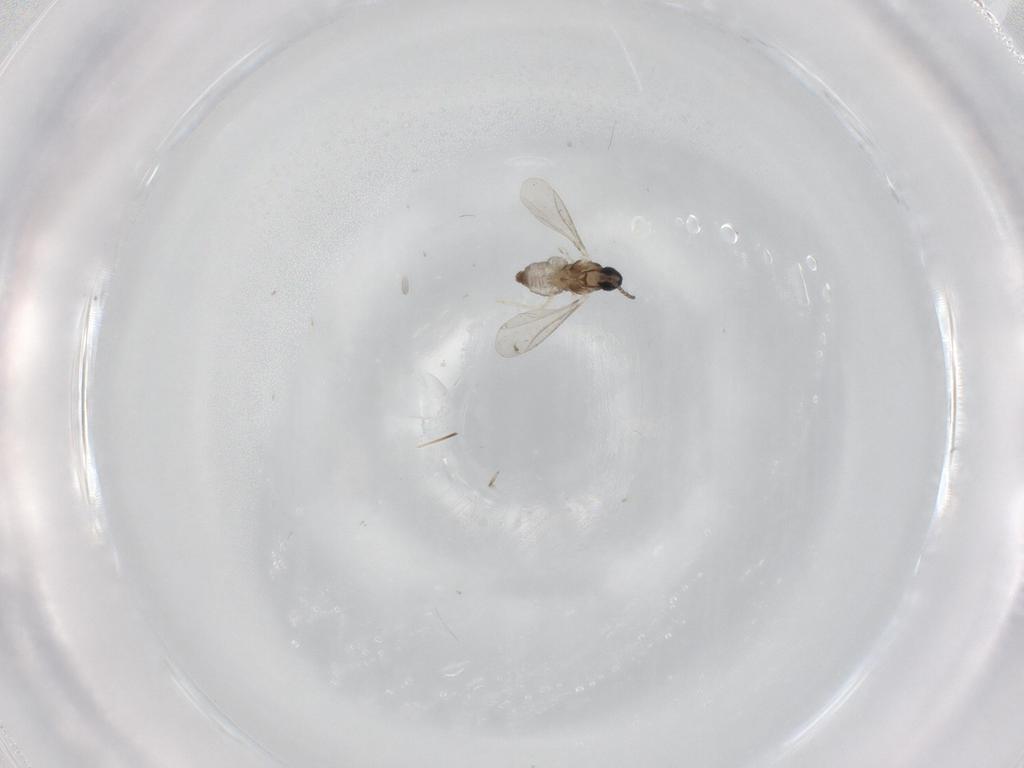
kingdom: Animalia
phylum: Arthropoda
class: Insecta
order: Diptera
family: Cecidomyiidae
